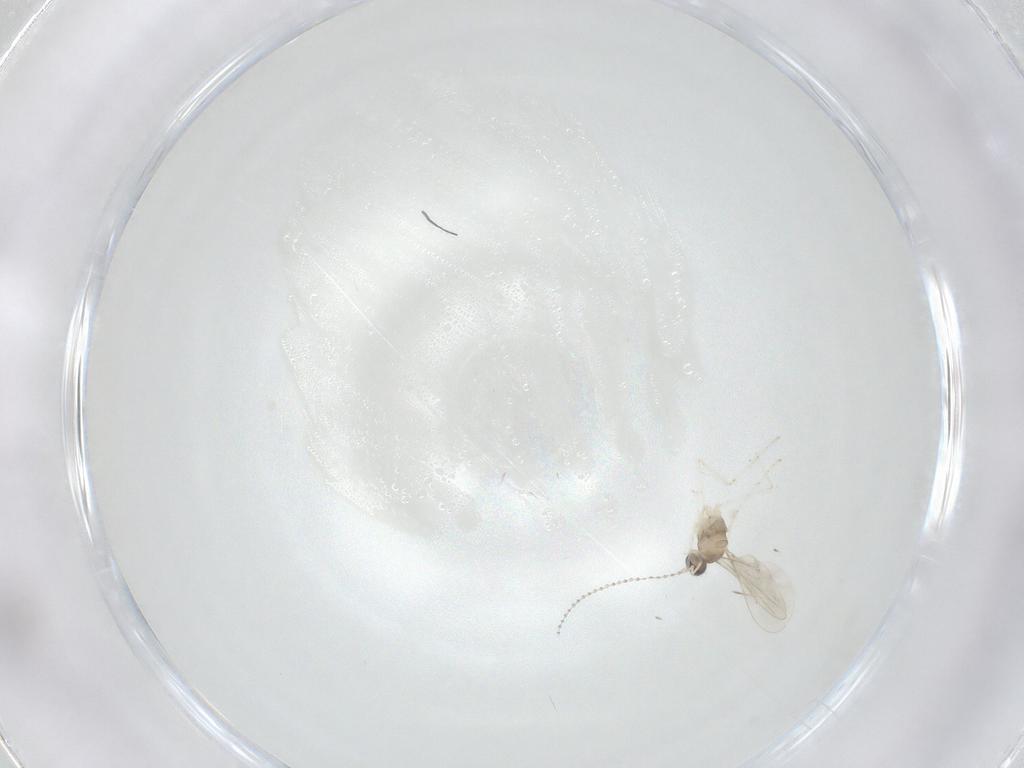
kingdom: Animalia
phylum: Arthropoda
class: Insecta
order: Diptera
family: Cecidomyiidae
